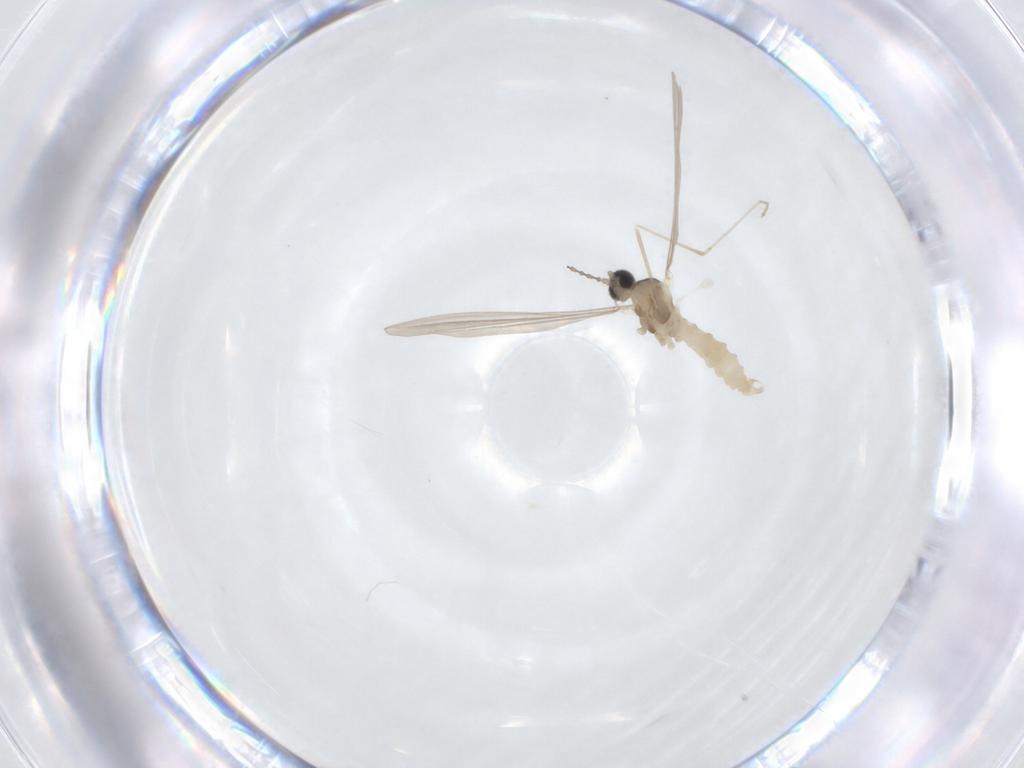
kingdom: Animalia
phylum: Arthropoda
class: Insecta
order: Diptera
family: Cecidomyiidae
